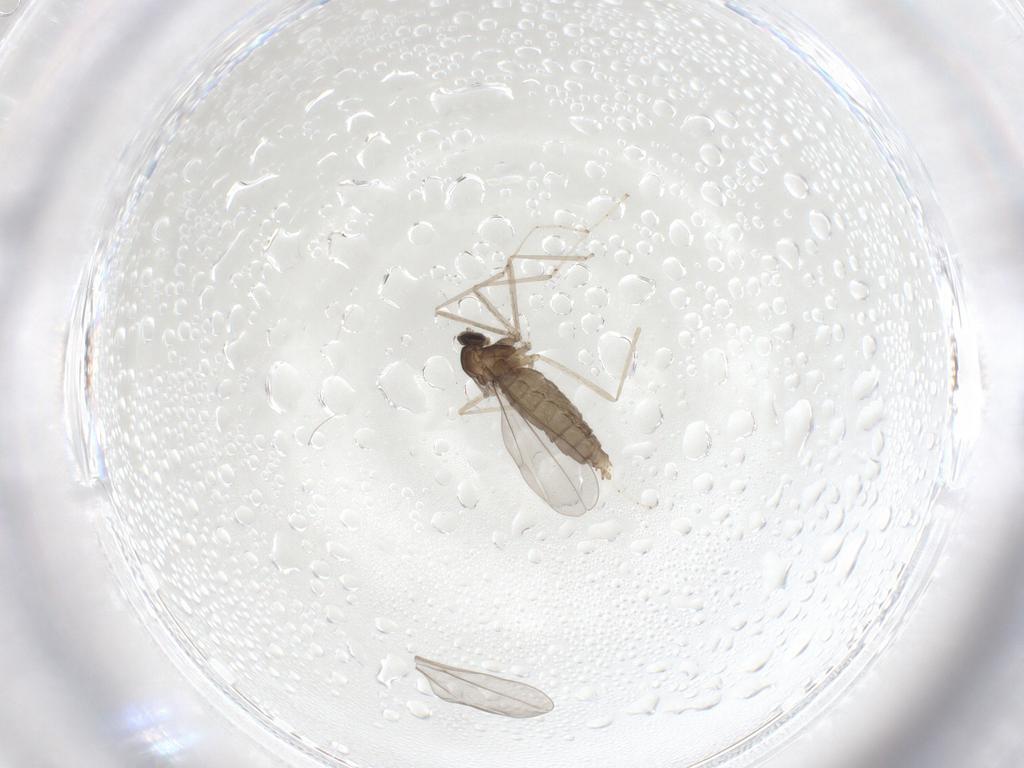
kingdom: Animalia
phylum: Arthropoda
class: Insecta
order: Diptera
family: Cecidomyiidae
